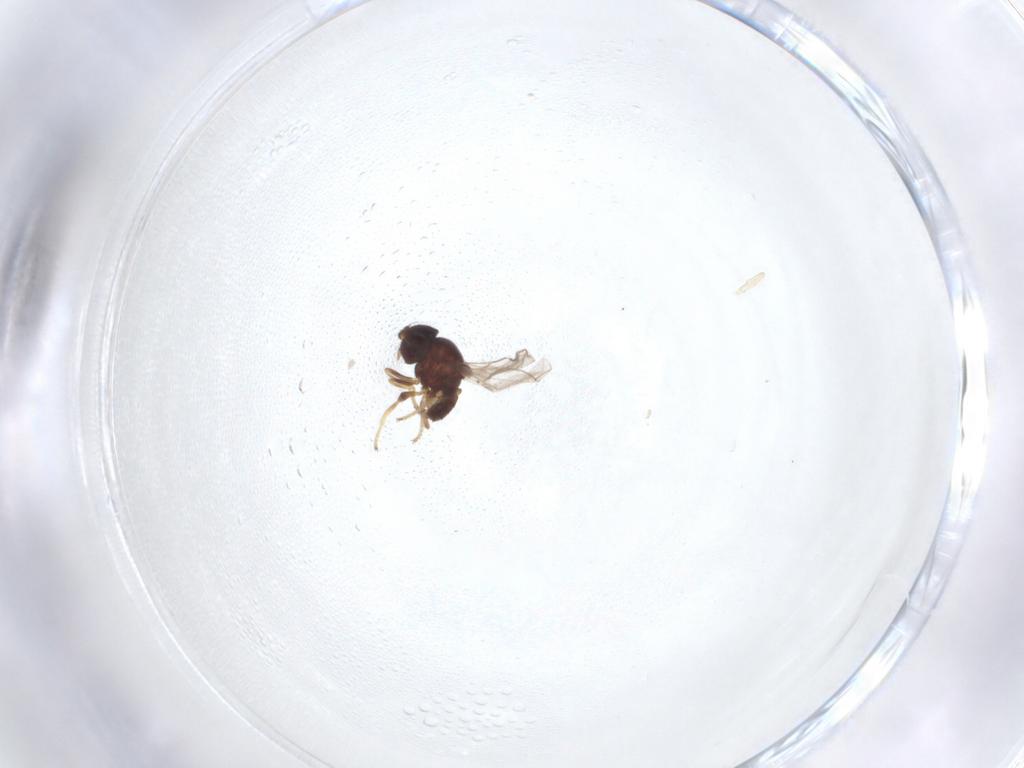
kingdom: Animalia
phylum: Arthropoda
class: Insecta
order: Diptera
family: Chloropidae
